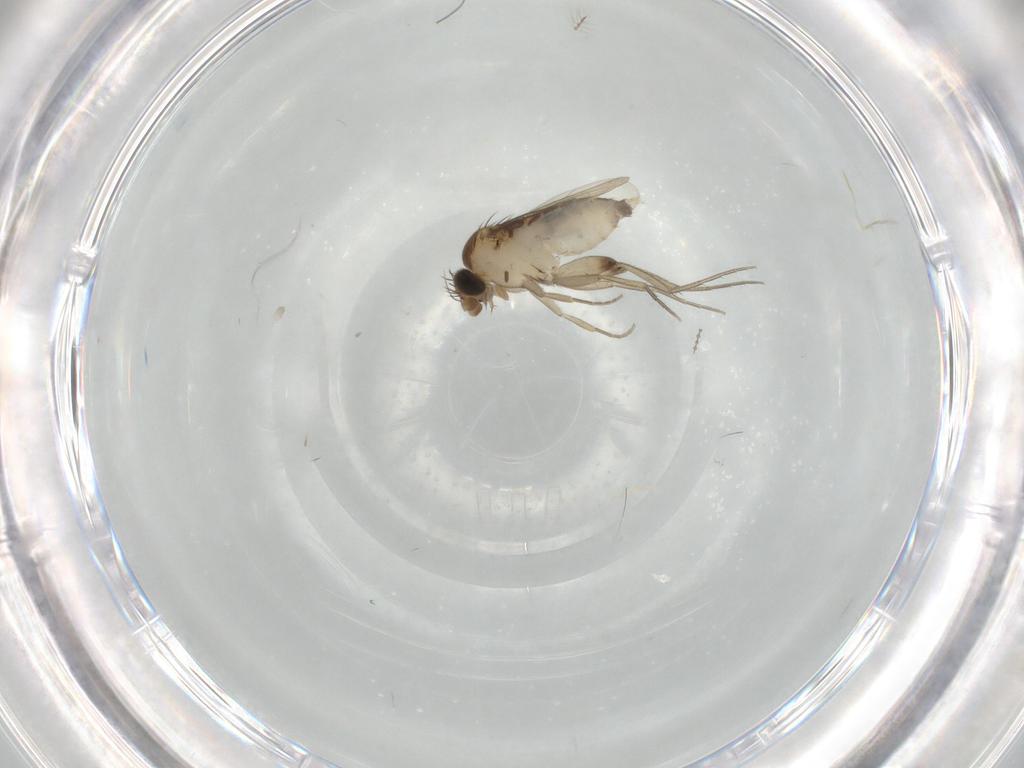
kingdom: Animalia
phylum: Arthropoda
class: Insecta
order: Diptera
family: Phoridae
